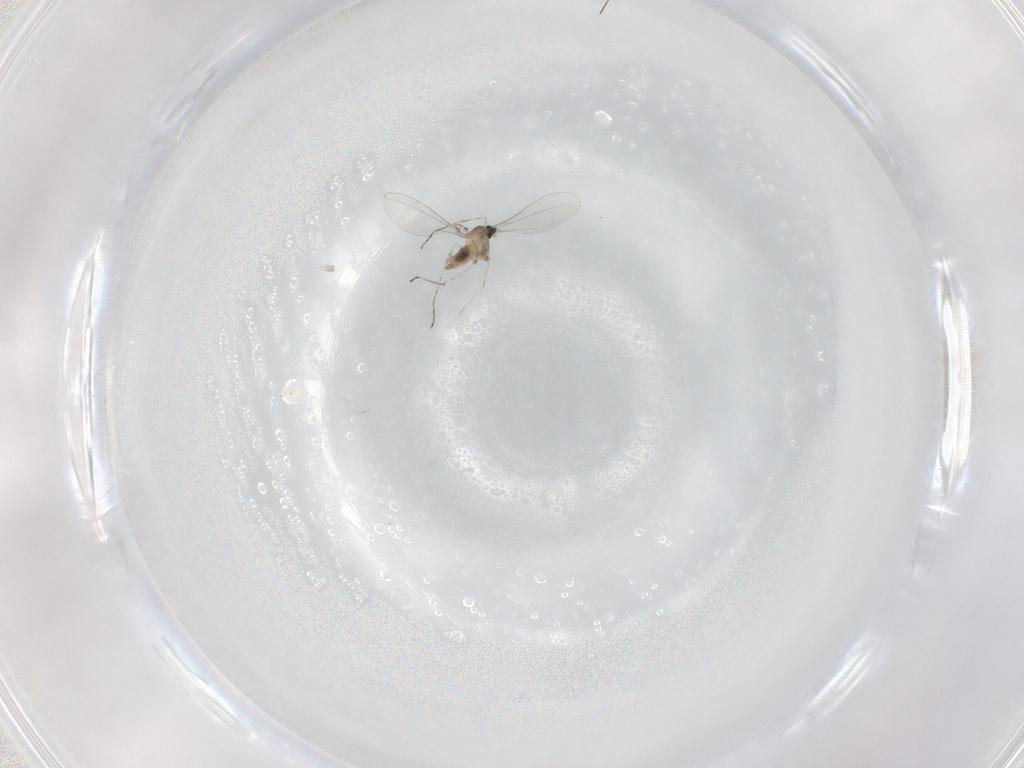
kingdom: Animalia
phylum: Arthropoda
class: Insecta
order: Diptera
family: Cecidomyiidae
